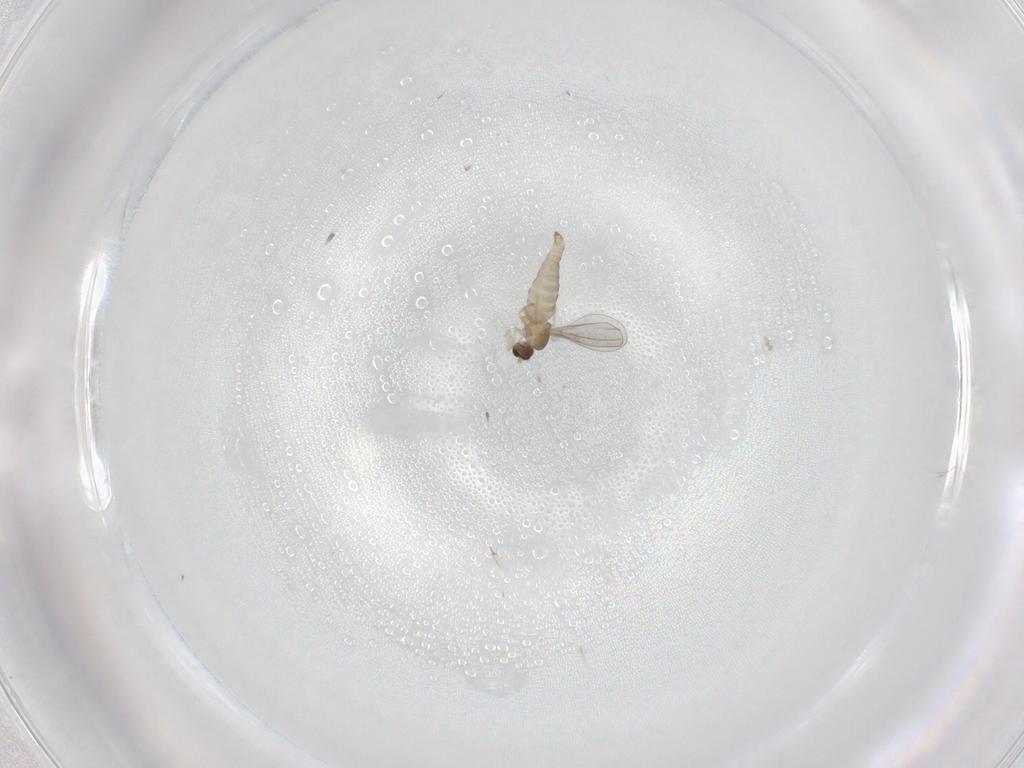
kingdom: Animalia
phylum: Arthropoda
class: Insecta
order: Diptera
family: Cecidomyiidae
